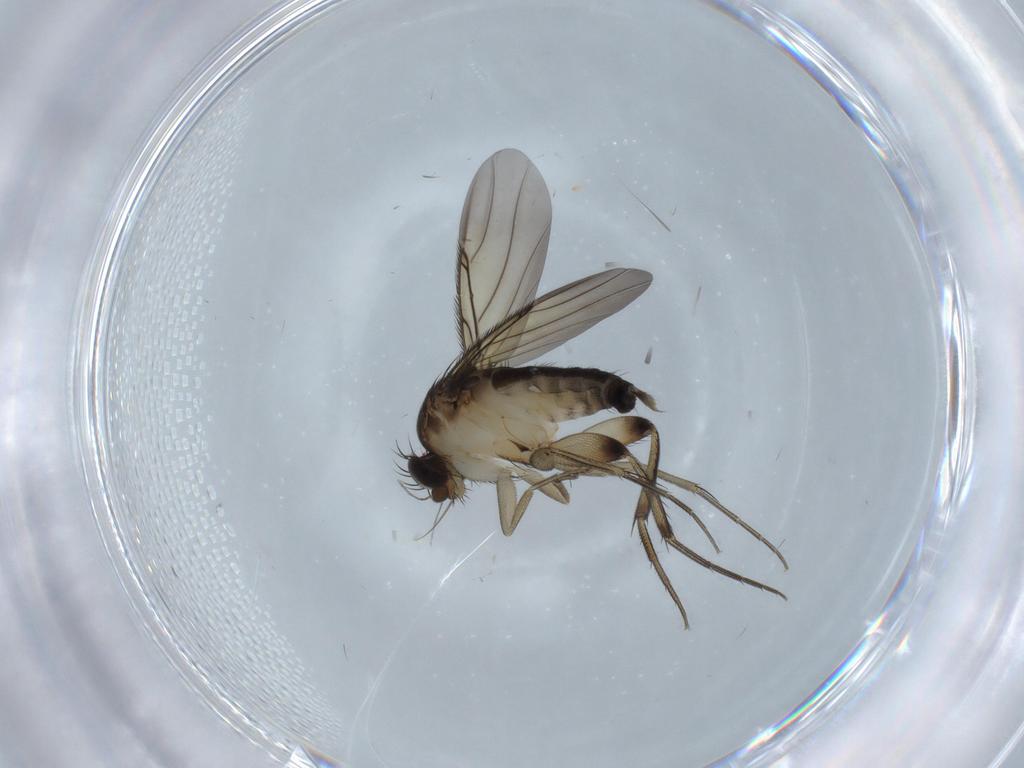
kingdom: Animalia
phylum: Arthropoda
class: Insecta
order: Diptera
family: Phoridae
